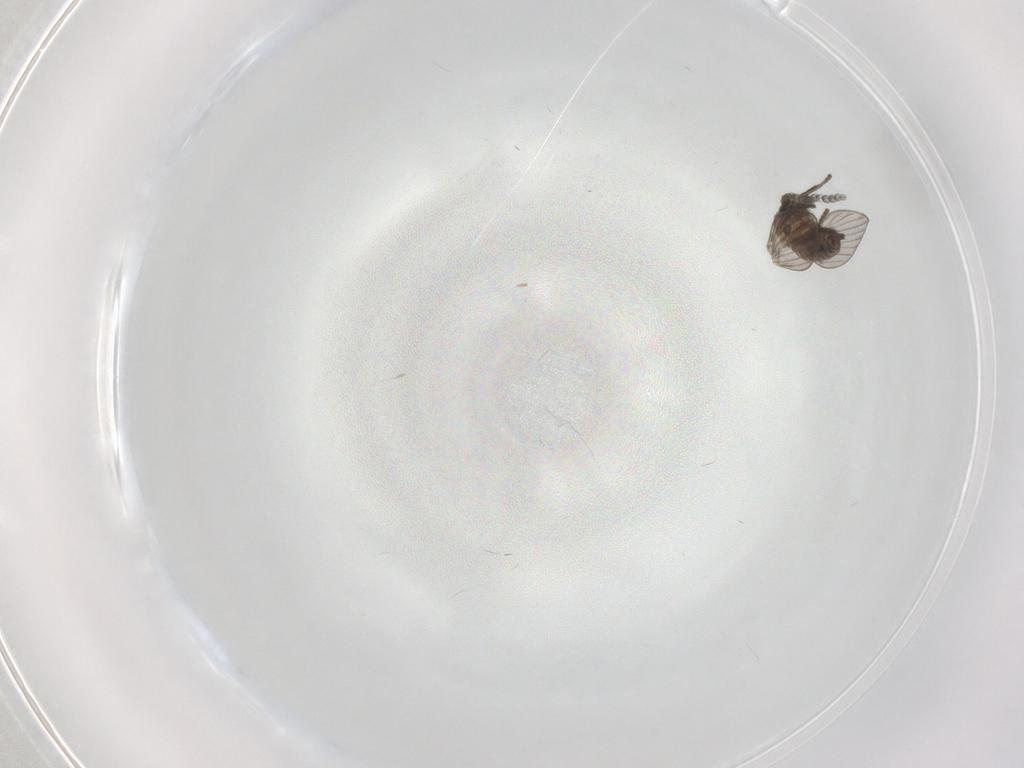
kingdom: Animalia
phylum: Arthropoda
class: Insecta
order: Diptera
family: Psychodidae
